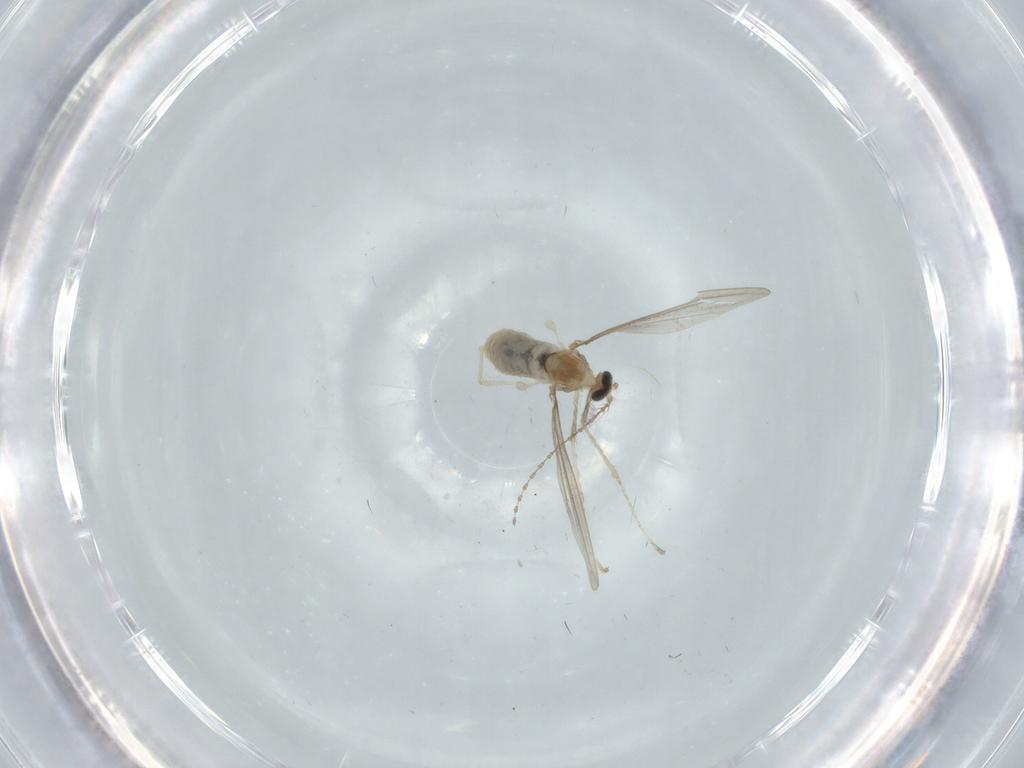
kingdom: Animalia
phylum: Arthropoda
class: Insecta
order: Diptera
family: Cecidomyiidae
